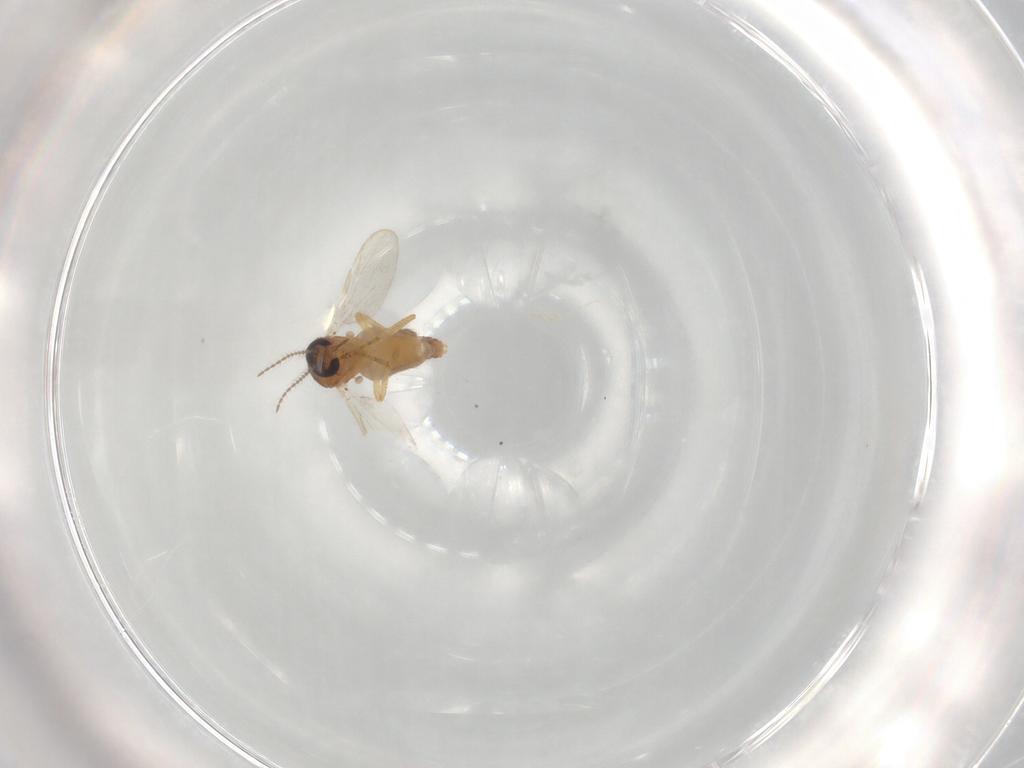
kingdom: Animalia
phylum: Arthropoda
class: Insecta
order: Diptera
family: Ceratopogonidae
